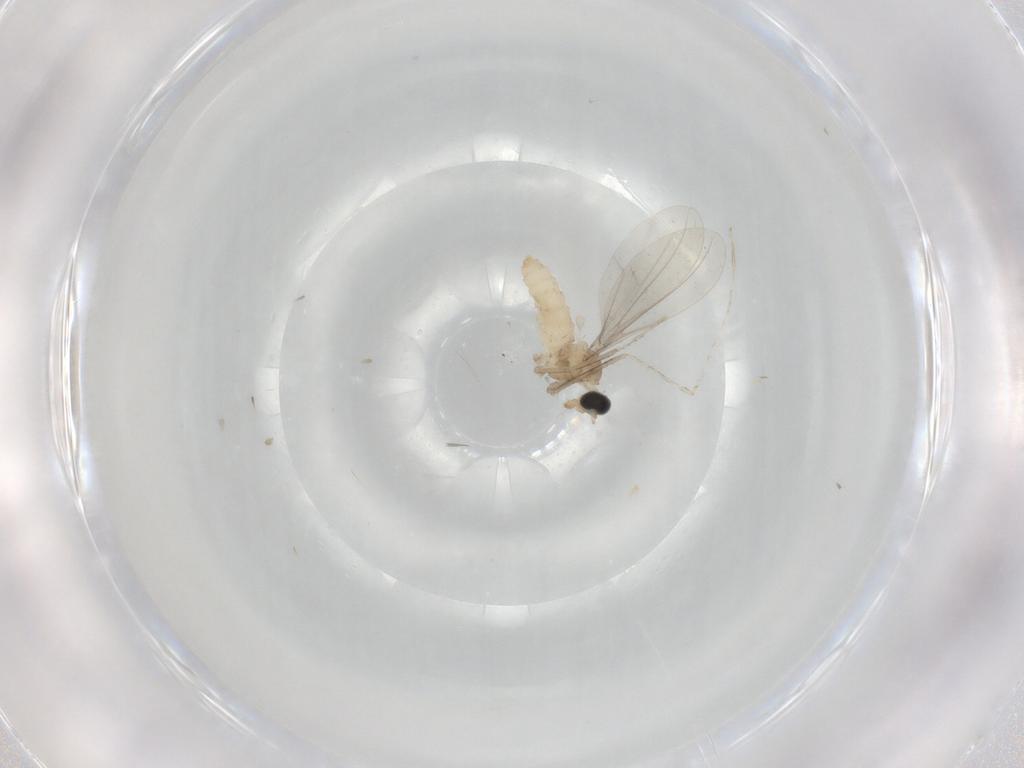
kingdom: Animalia
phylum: Arthropoda
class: Insecta
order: Diptera
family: Cecidomyiidae
